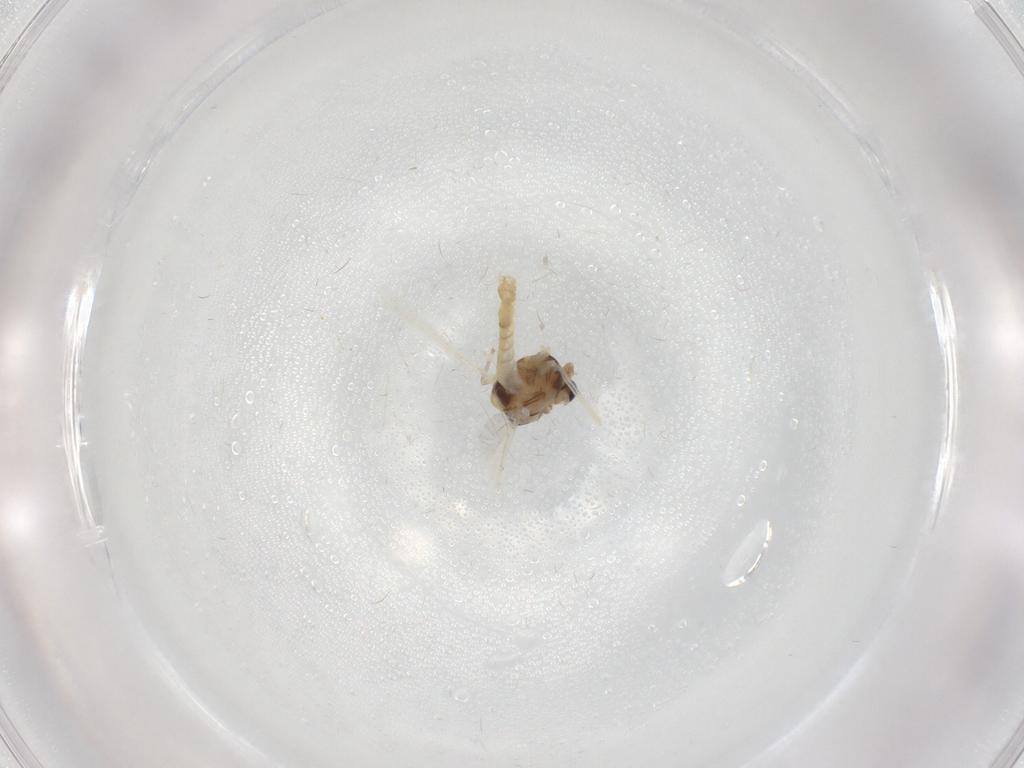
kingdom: Animalia
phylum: Arthropoda
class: Insecta
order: Diptera
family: Chironomidae
